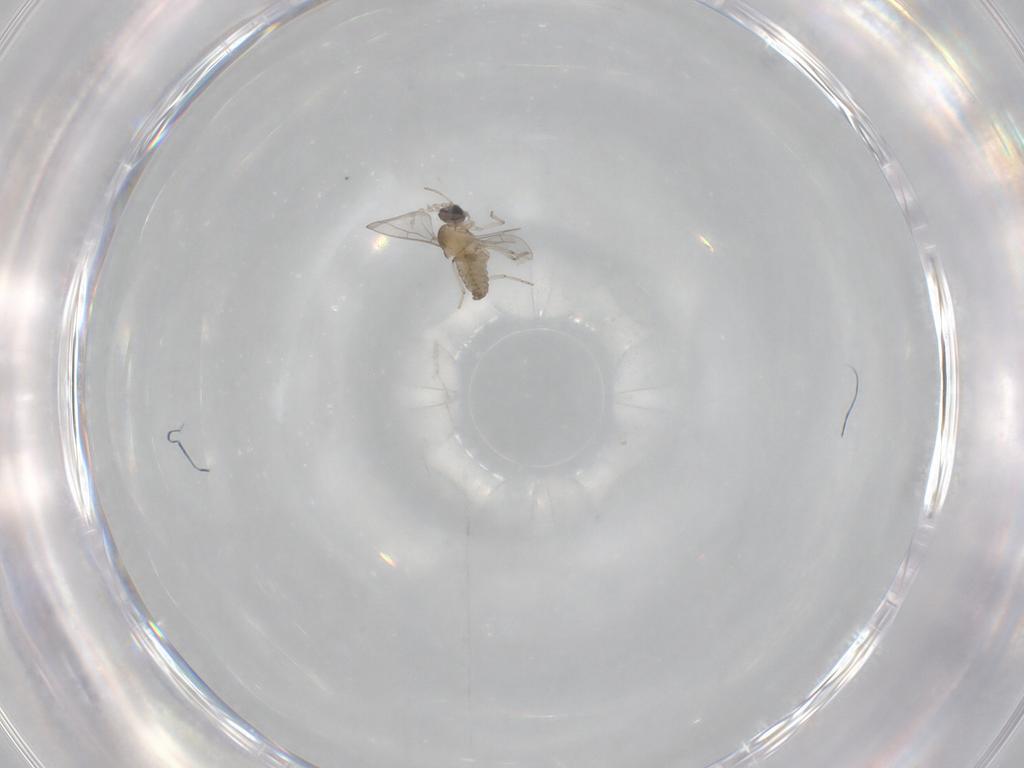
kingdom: Animalia
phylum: Arthropoda
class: Insecta
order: Diptera
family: Cecidomyiidae
